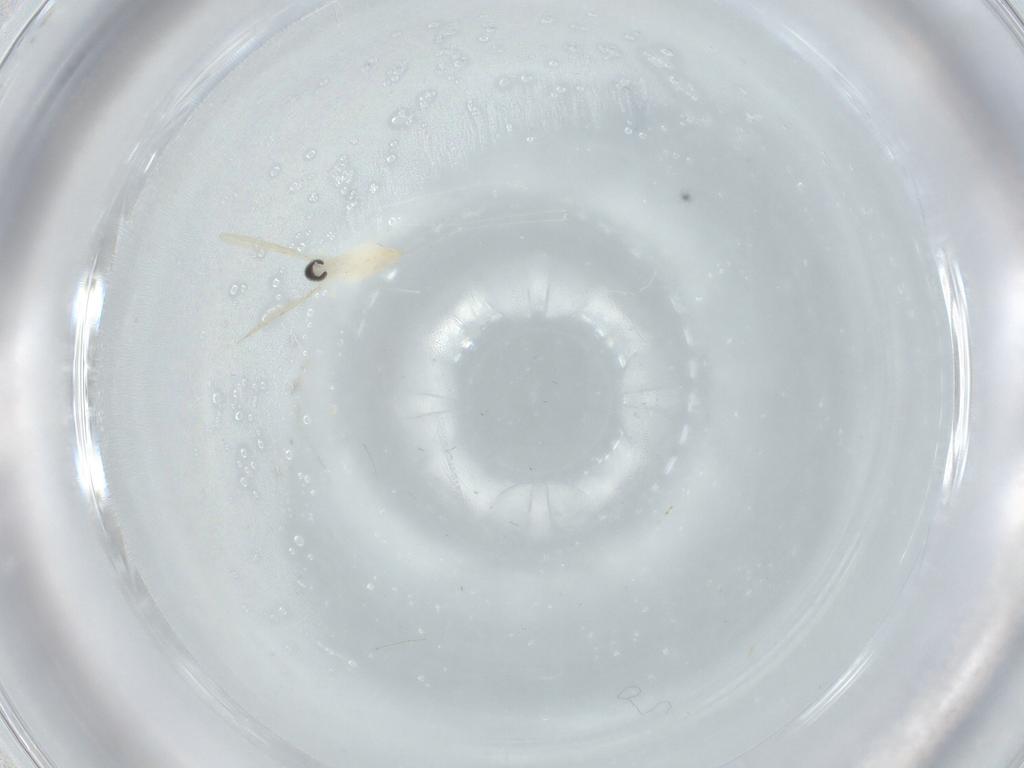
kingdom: Animalia
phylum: Arthropoda
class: Insecta
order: Diptera
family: Cecidomyiidae
